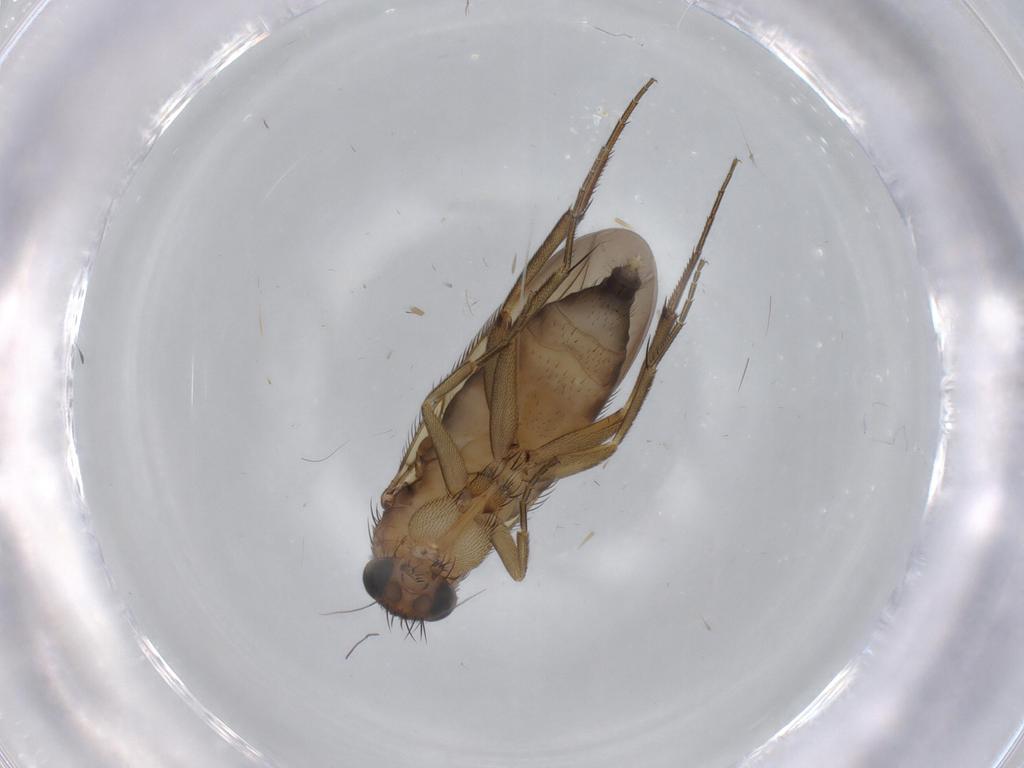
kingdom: Animalia
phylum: Arthropoda
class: Insecta
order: Diptera
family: Phoridae
